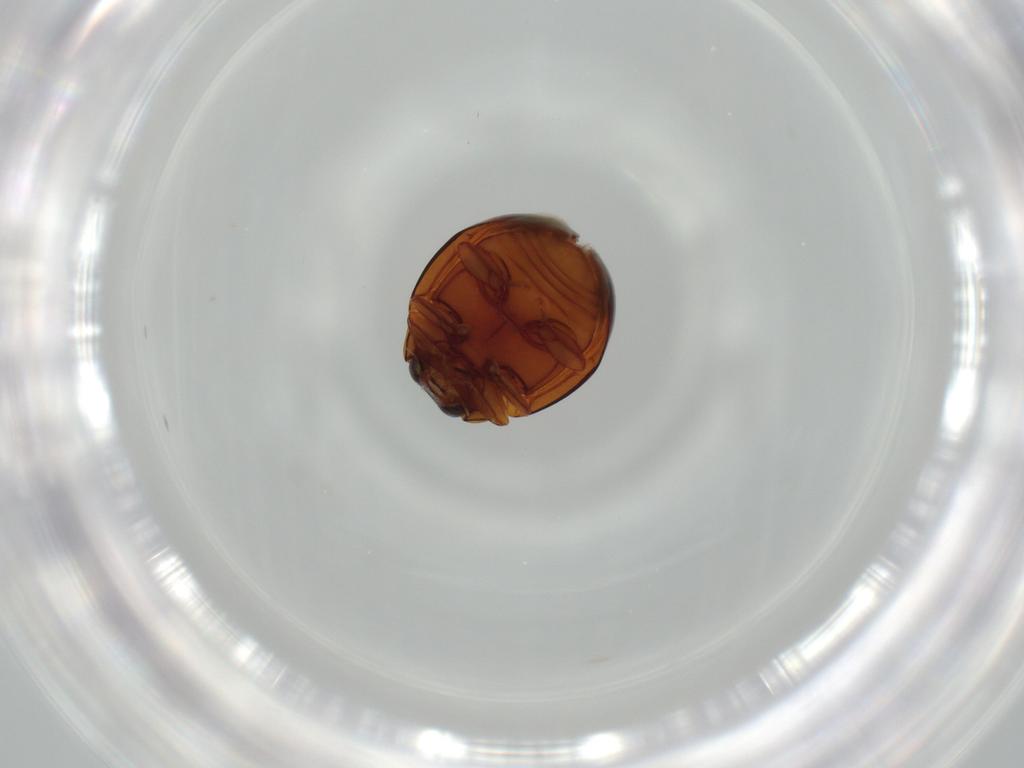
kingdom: Animalia
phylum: Arthropoda
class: Insecta
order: Coleoptera
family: Coccinellidae
